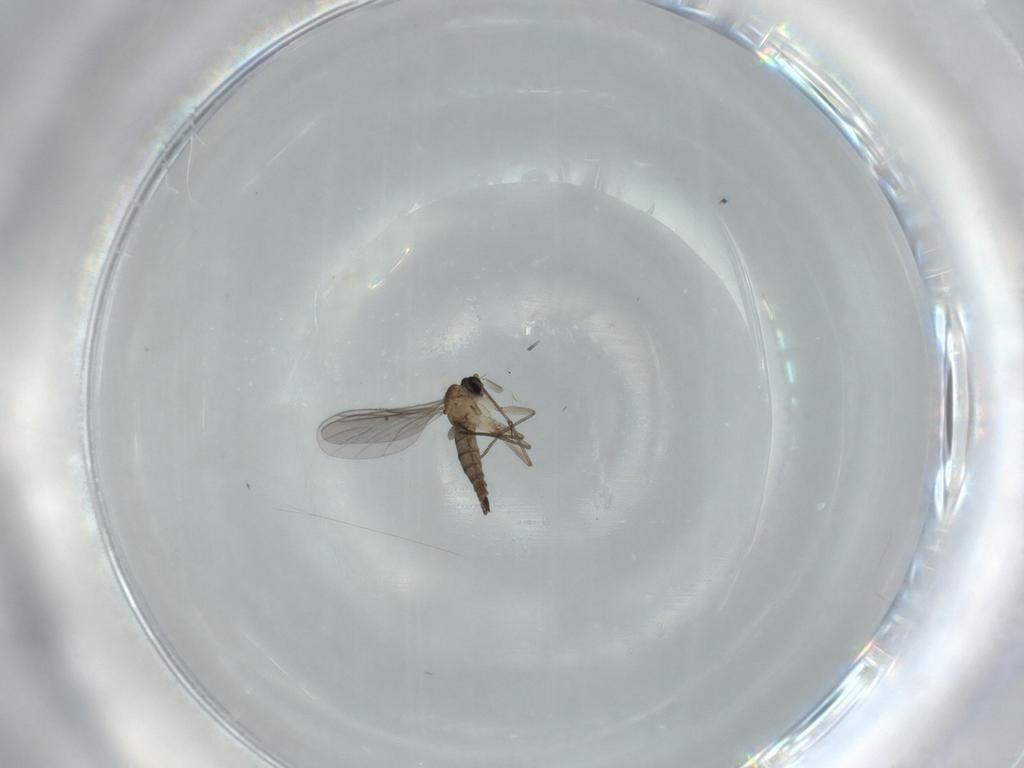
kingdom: Animalia
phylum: Arthropoda
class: Insecta
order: Diptera
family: Sciaridae
